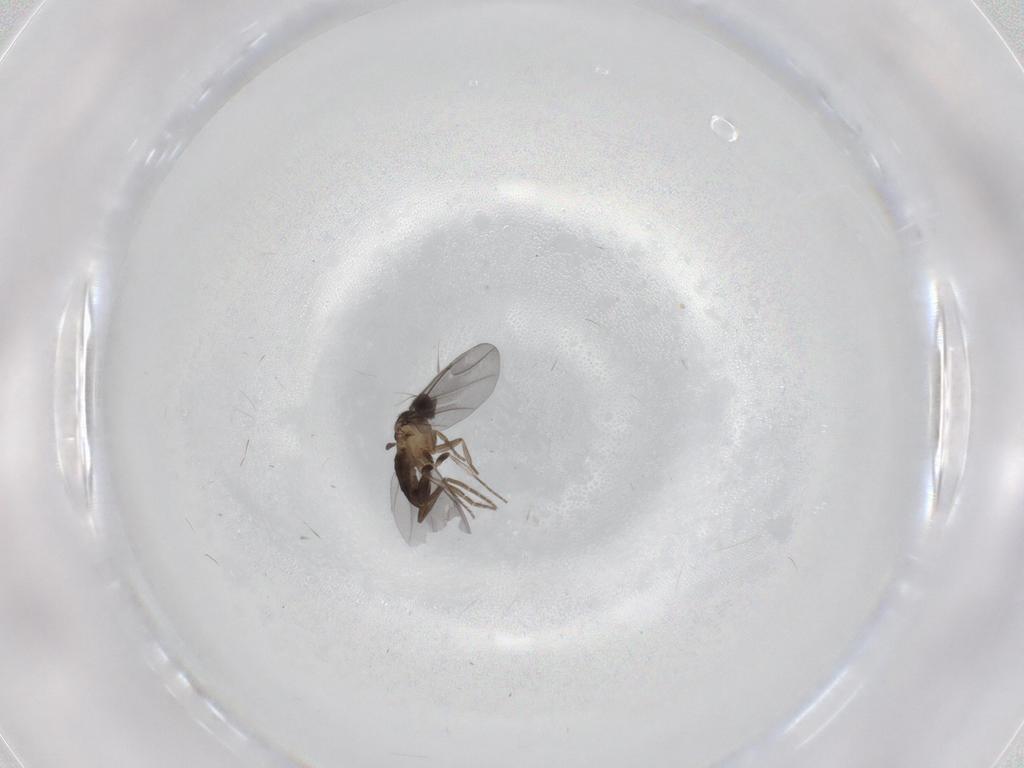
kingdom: Animalia
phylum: Arthropoda
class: Insecta
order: Diptera
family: Phoridae
